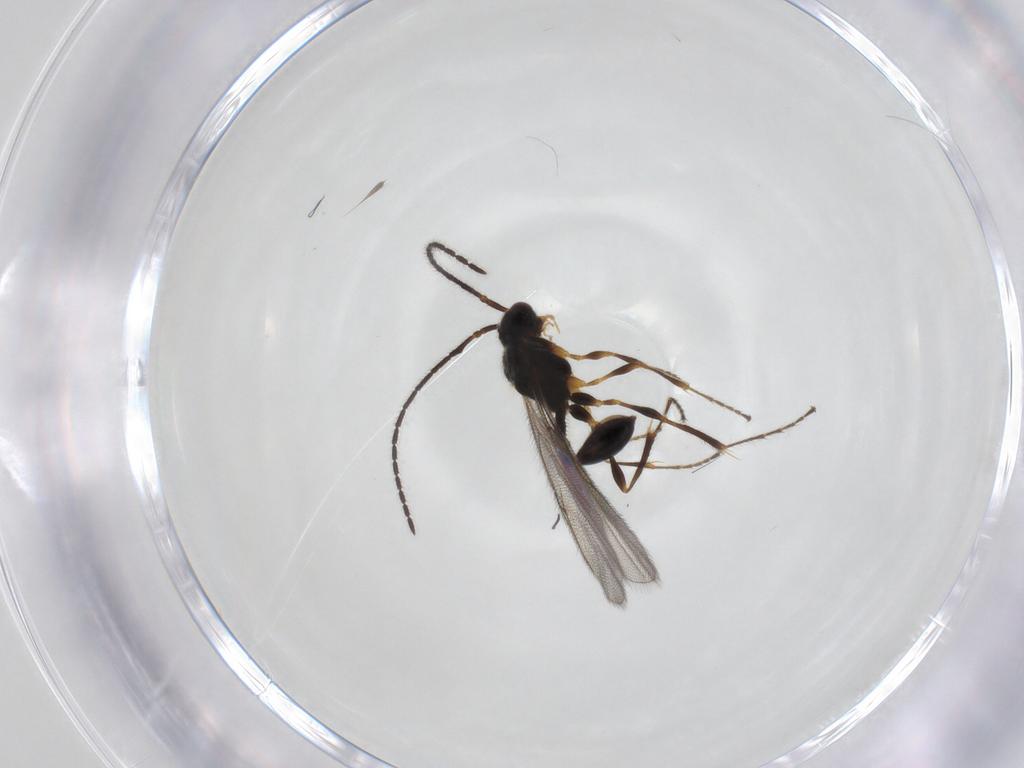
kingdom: Animalia
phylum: Arthropoda
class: Insecta
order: Hymenoptera
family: Diapriidae
